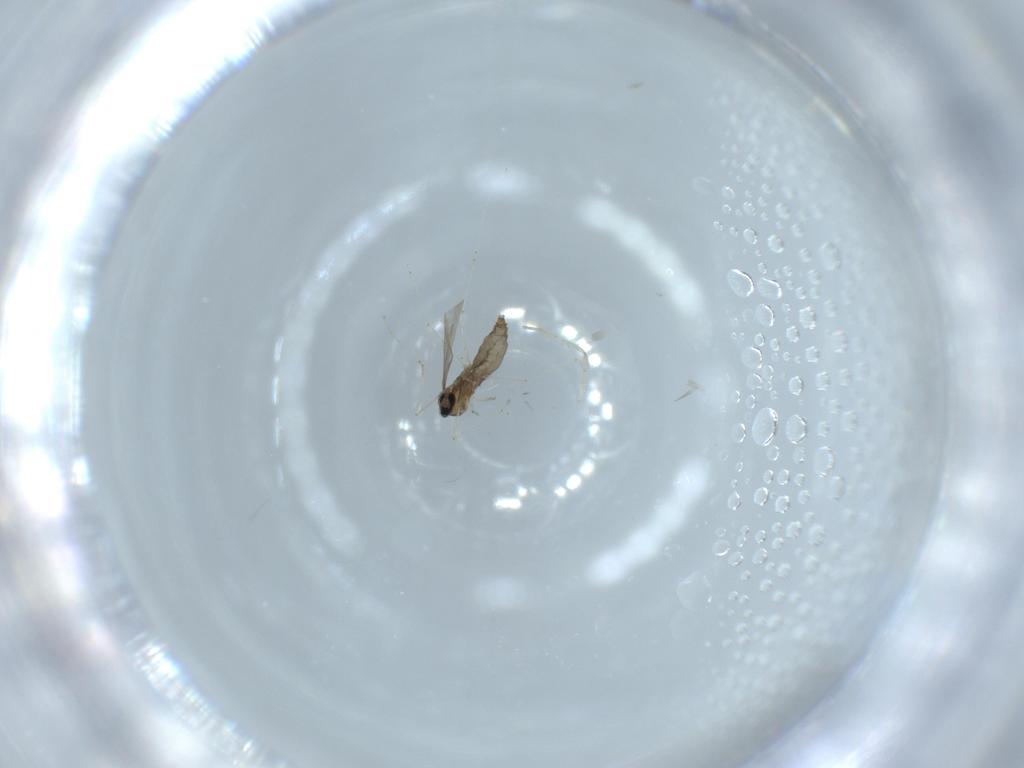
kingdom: Animalia
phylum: Arthropoda
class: Insecta
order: Diptera
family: Cecidomyiidae
